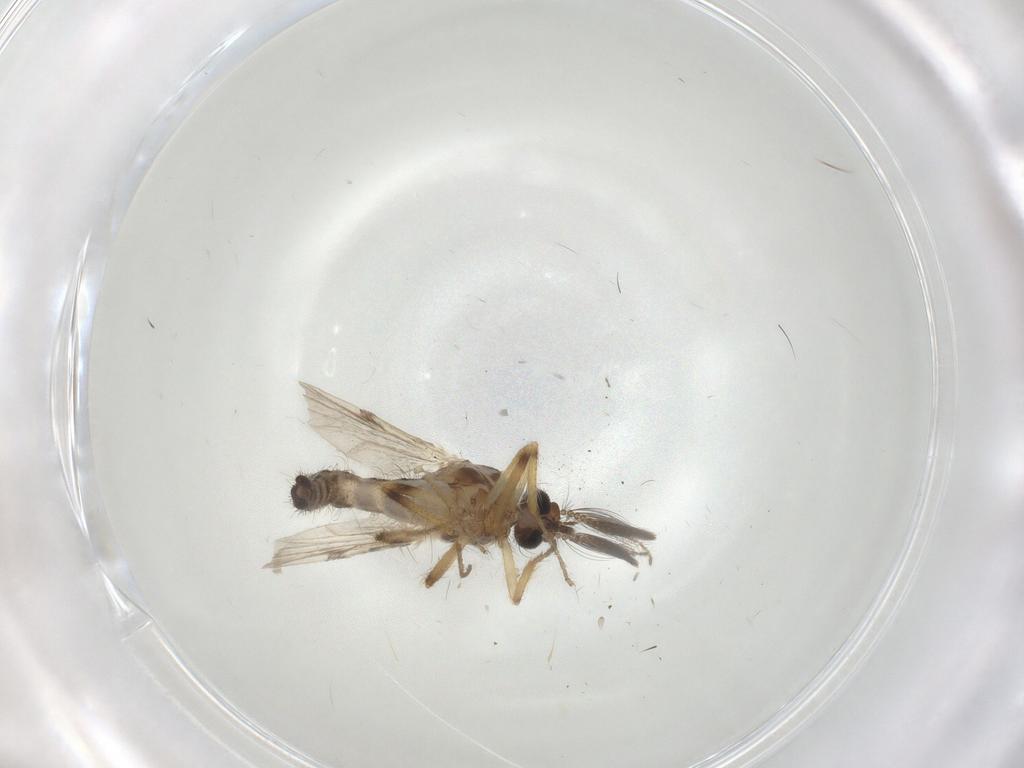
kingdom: Animalia
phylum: Arthropoda
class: Insecta
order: Diptera
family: Ceratopogonidae
